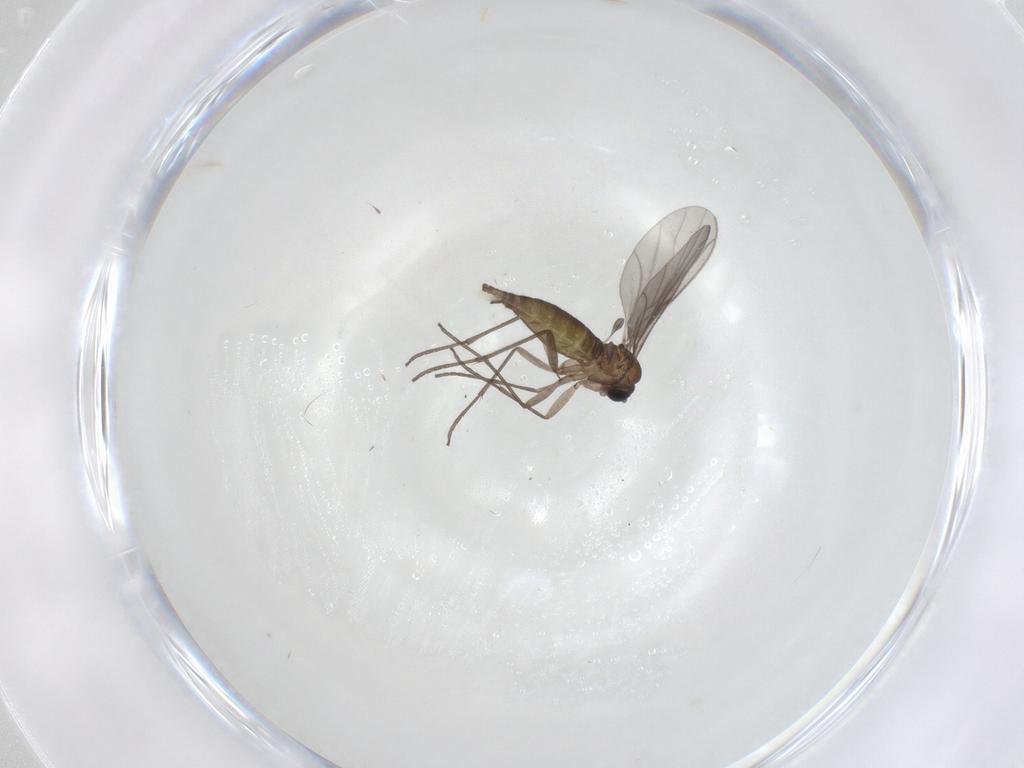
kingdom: Animalia
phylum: Arthropoda
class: Insecta
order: Diptera
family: Sciaridae
